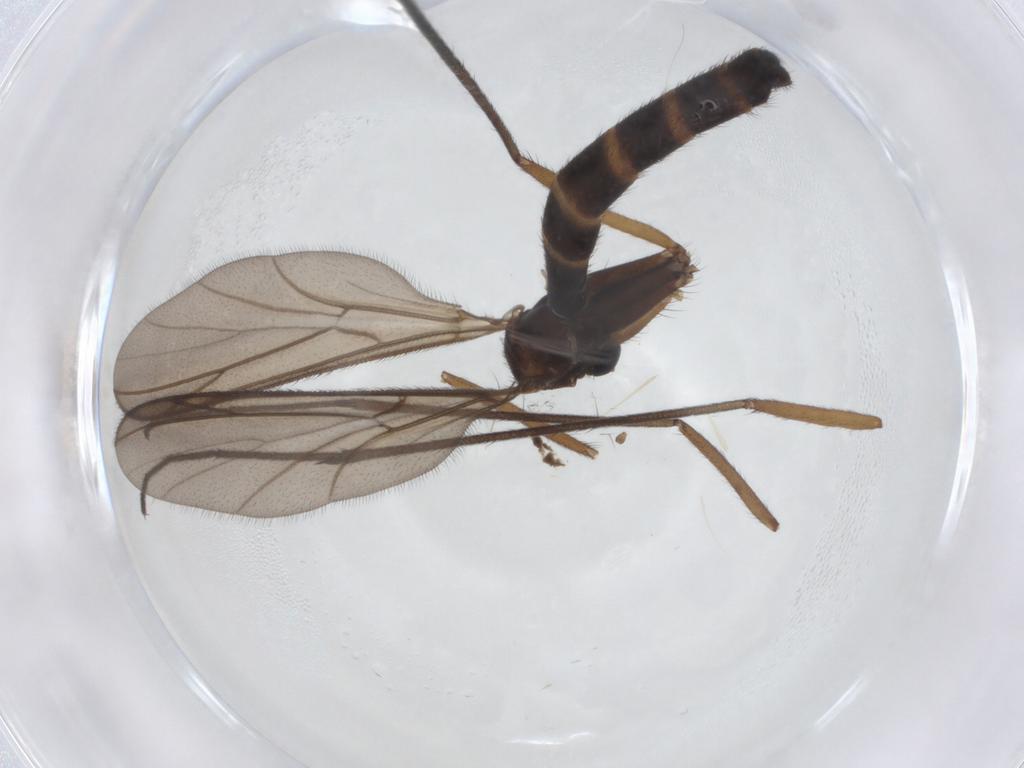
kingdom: Animalia
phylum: Arthropoda
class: Insecta
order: Diptera
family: Ditomyiidae
